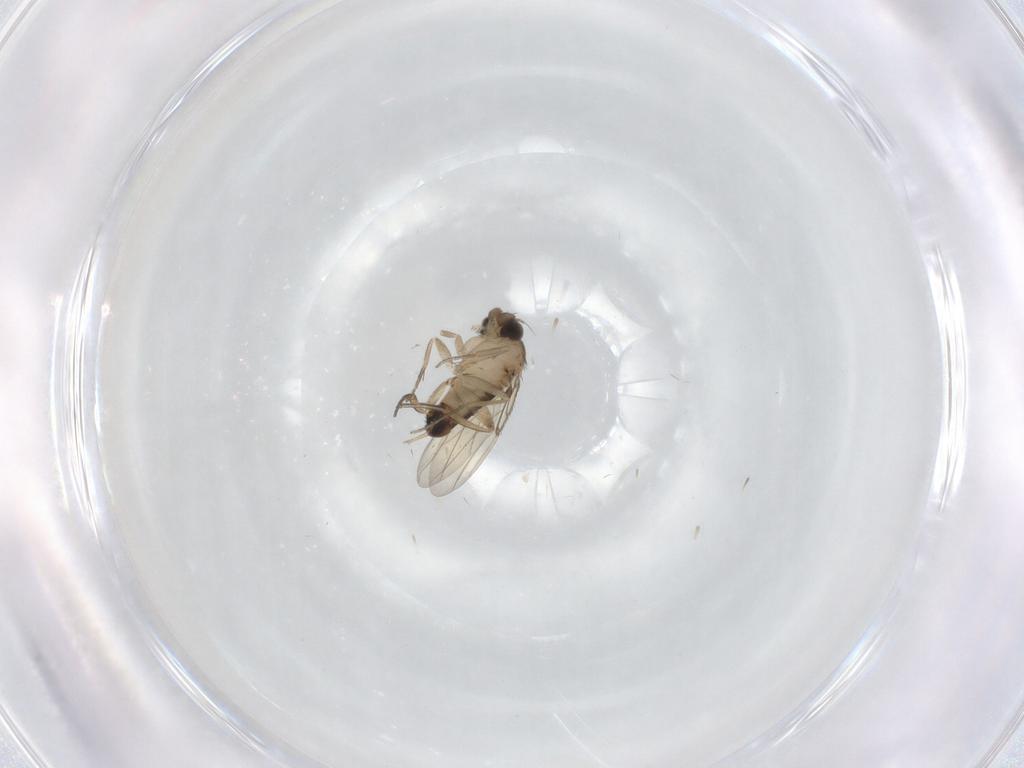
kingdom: Animalia
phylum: Arthropoda
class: Insecta
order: Diptera
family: Phoridae
